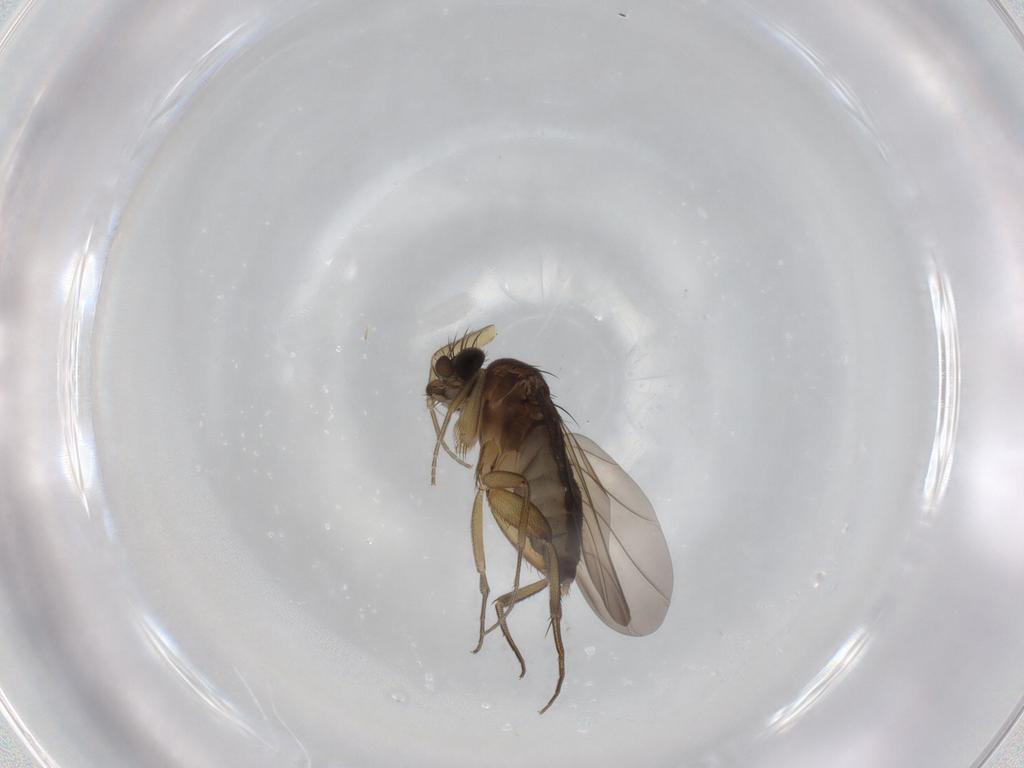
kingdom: Animalia
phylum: Arthropoda
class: Insecta
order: Diptera
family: Phoridae
